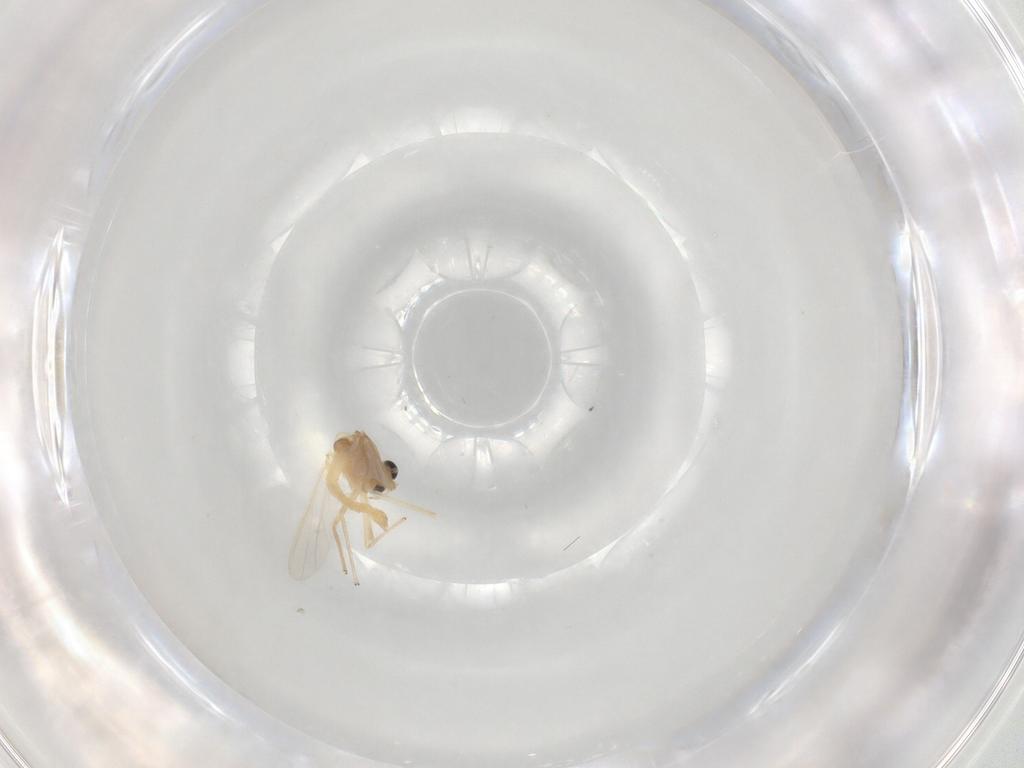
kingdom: Animalia
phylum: Arthropoda
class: Insecta
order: Diptera
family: Chironomidae
